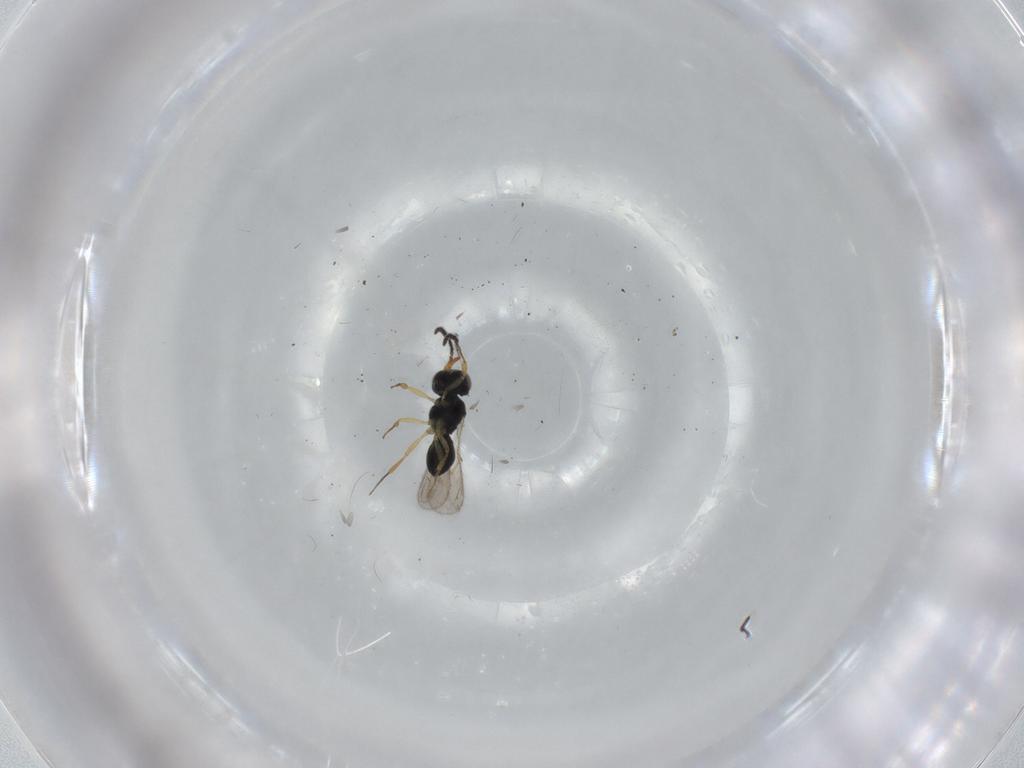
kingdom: Animalia
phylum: Arthropoda
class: Insecta
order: Hymenoptera
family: Scelionidae
